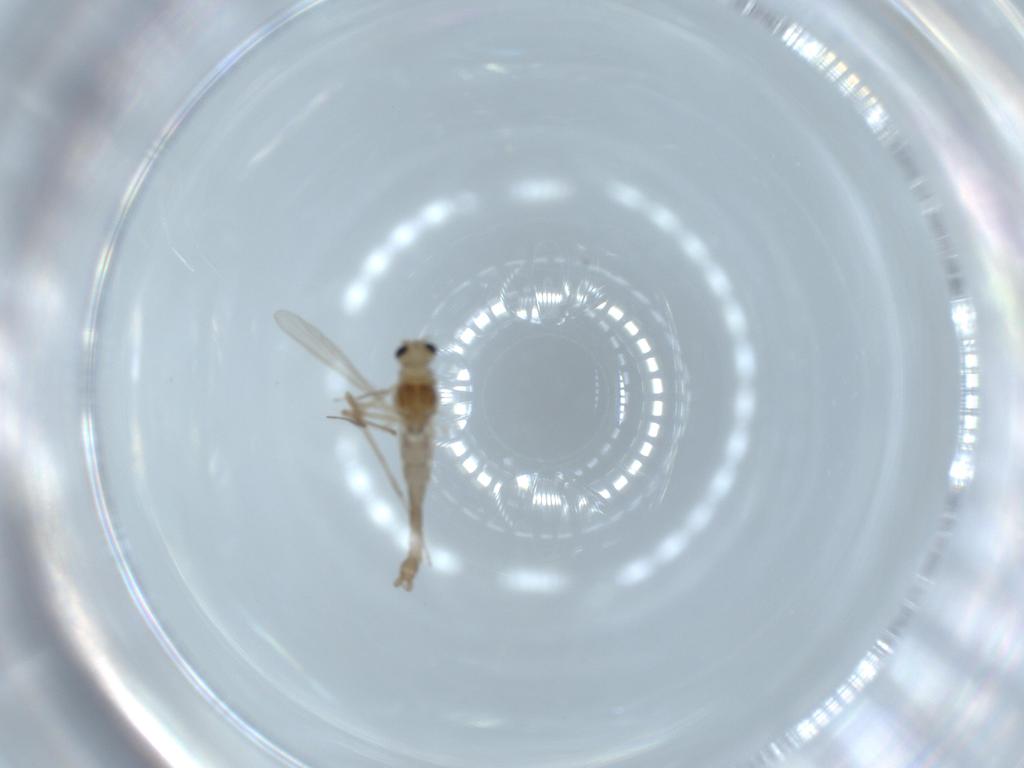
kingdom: Animalia
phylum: Arthropoda
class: Insecta
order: Diptera
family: Chironomidae
